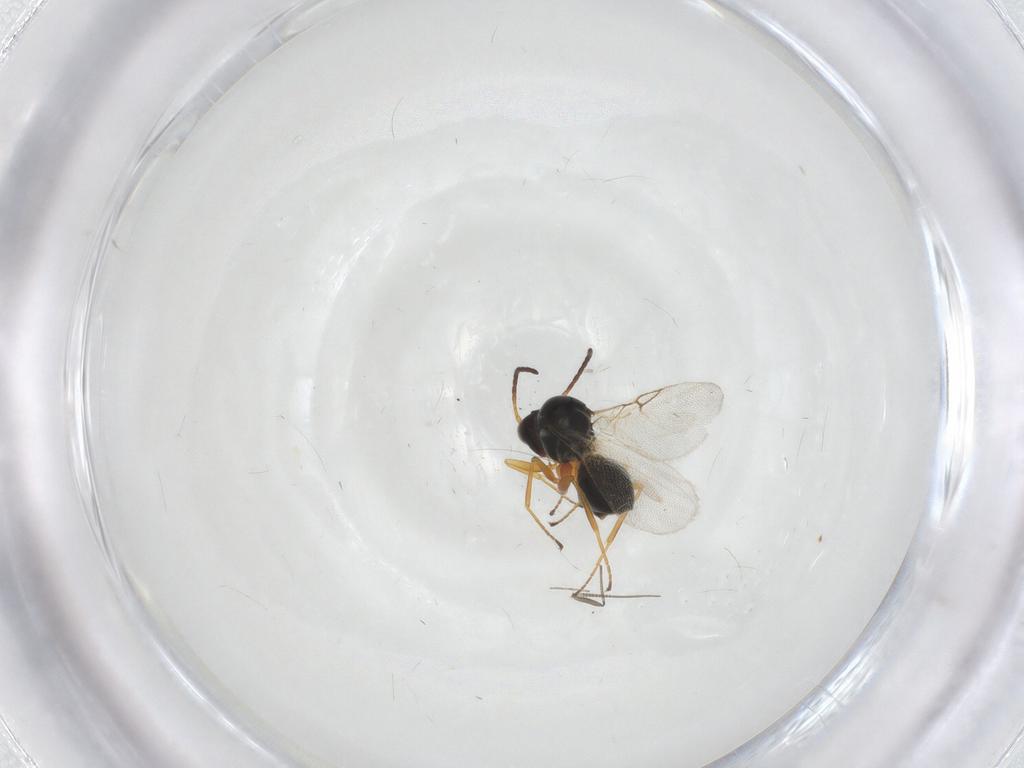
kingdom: Animalia
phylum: Arthropoda
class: Insecta
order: Hymenoptera
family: Figitidae
